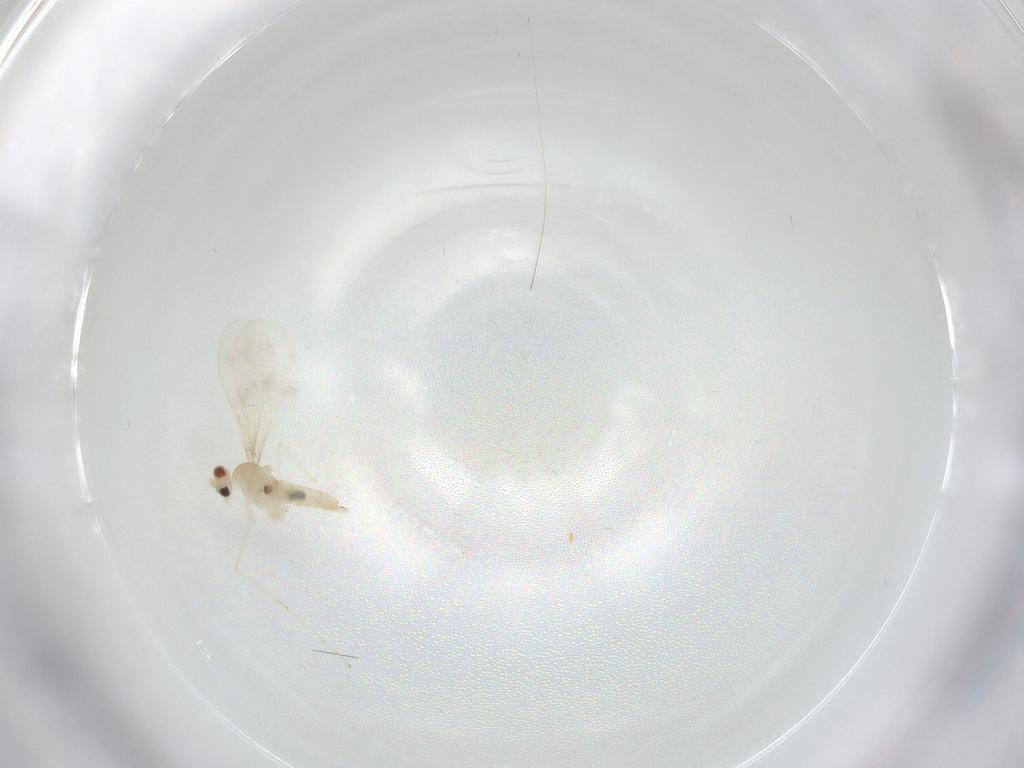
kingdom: Animalia
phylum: Arthropoda
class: Insecta
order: Diptera
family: Cecidomyiidae
